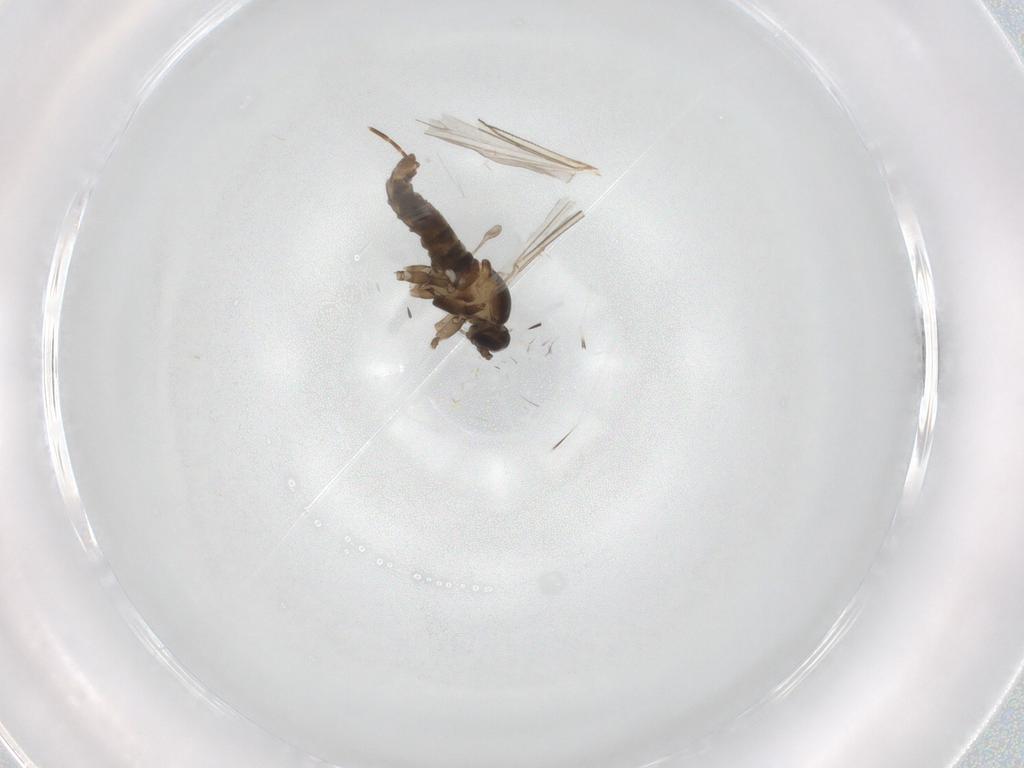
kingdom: Animalia
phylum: Arthropoda
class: Insecta
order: Diptera
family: Cecidomyiidae
